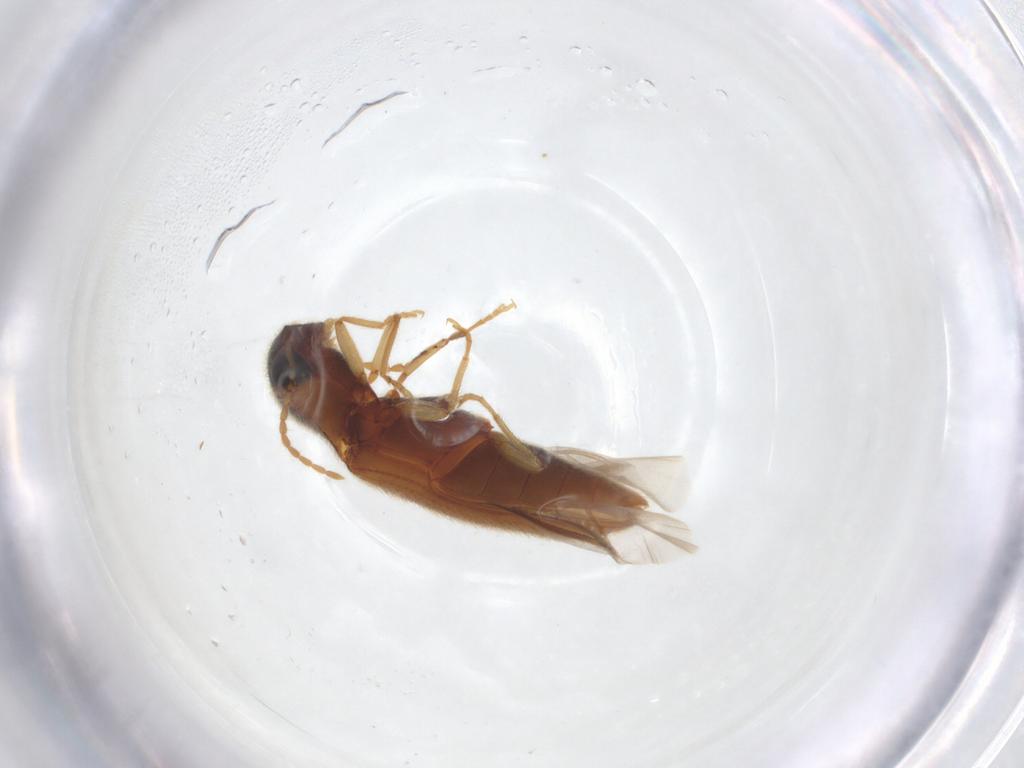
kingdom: Animalia
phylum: Arthropoda
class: Insecta
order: Coleoptera
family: Elateridae
